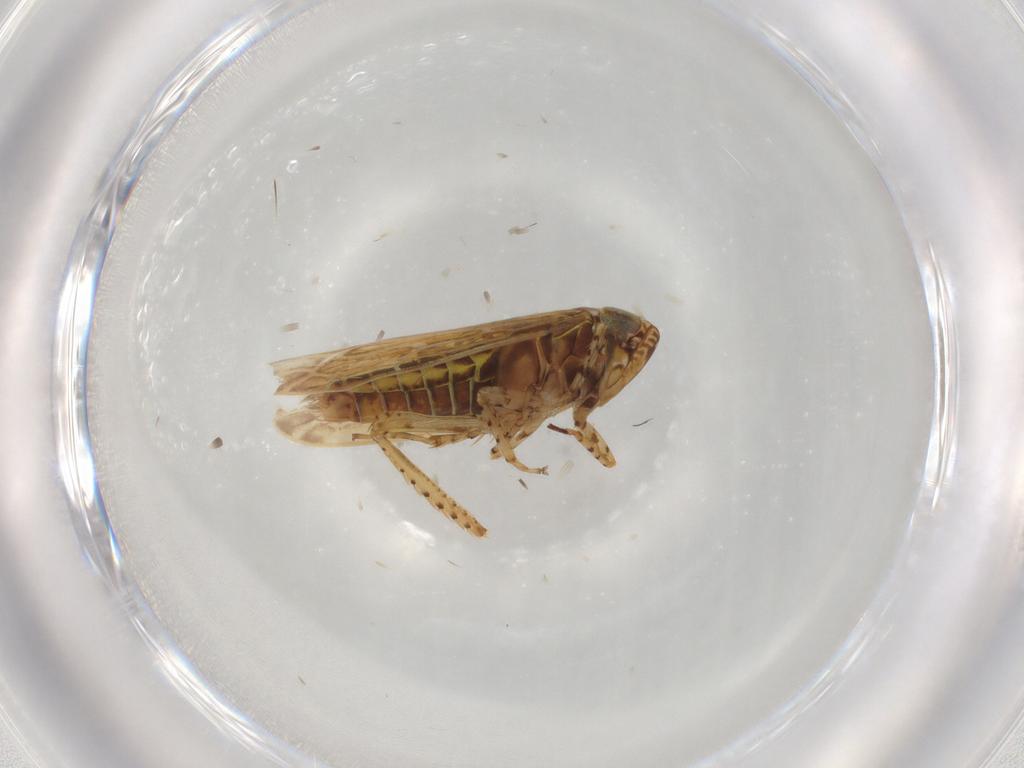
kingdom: Animalia
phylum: Arthropoda
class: Insecta
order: Hemiptera
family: Cicadellidae
